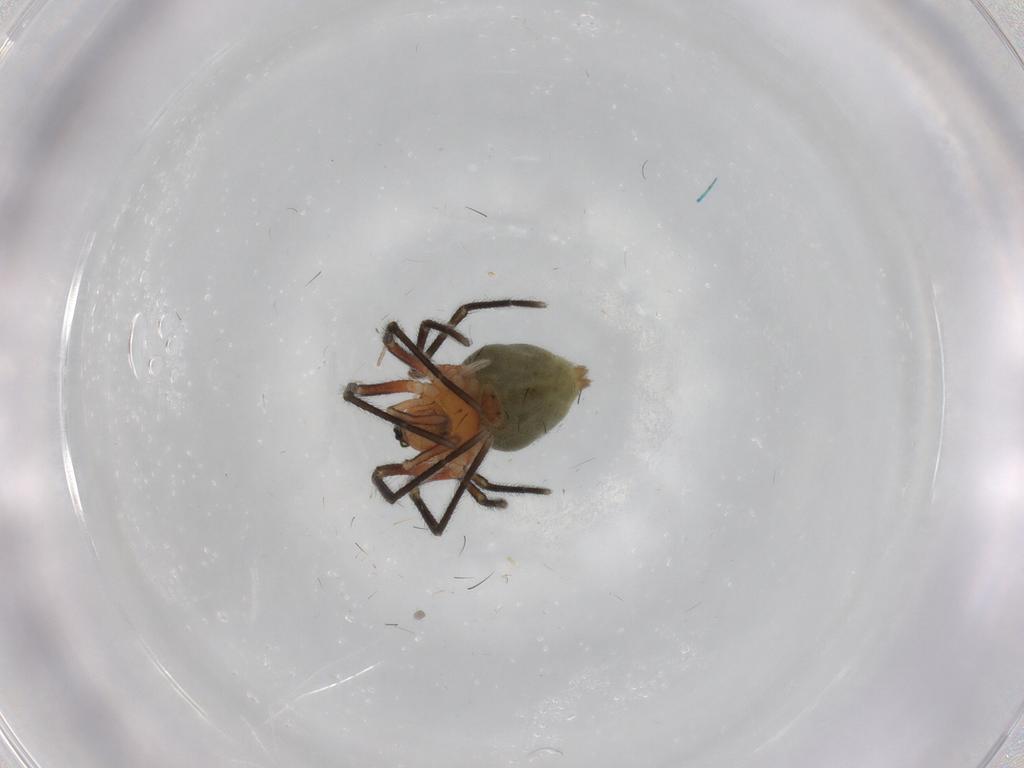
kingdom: Animalia
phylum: Arthropoda
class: Arachnida
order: Araneae
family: Linyphiidae
